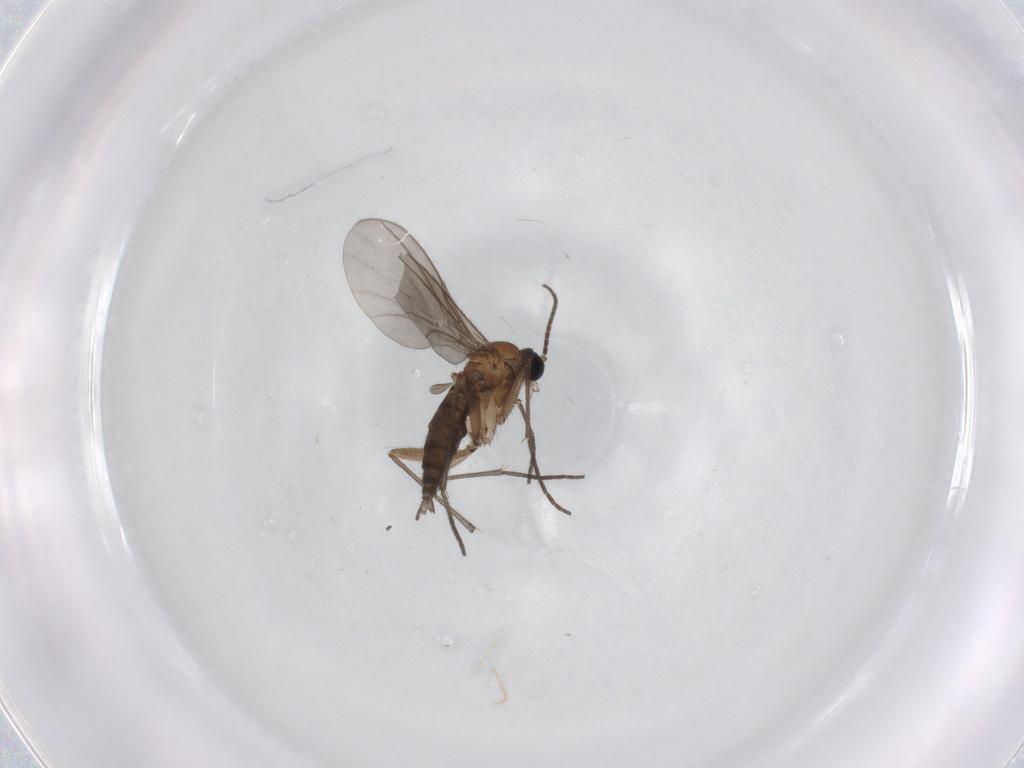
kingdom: Animalia
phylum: Arthropoda
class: Insecta
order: Diptera
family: Sciaridae
